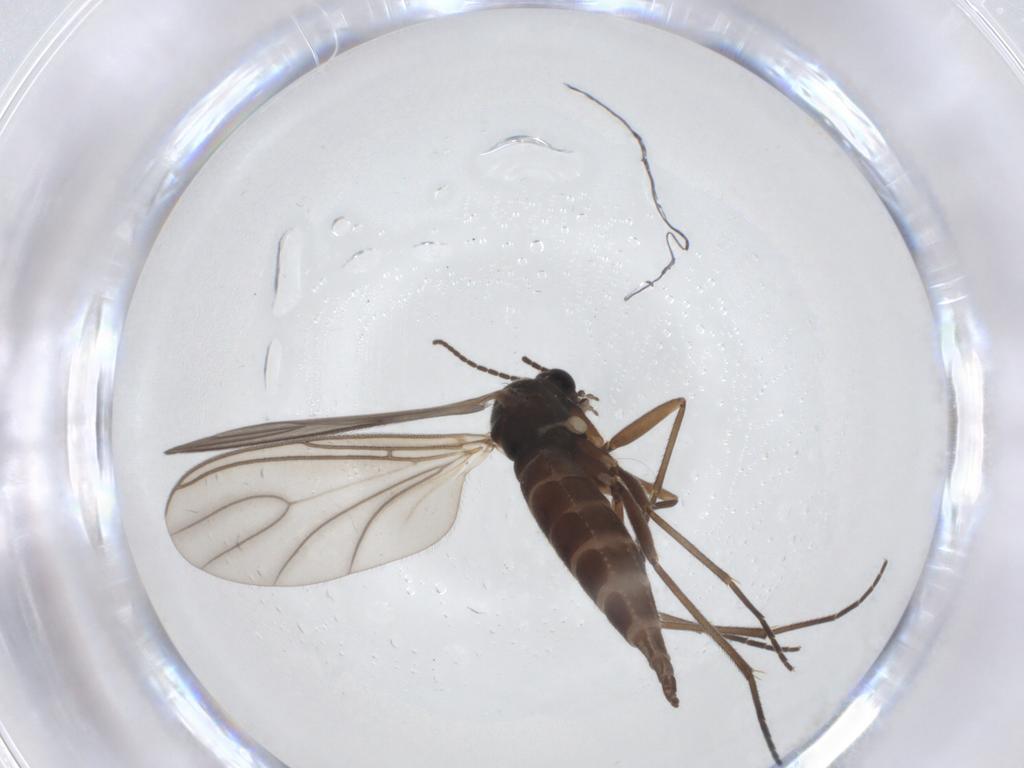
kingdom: Animalia
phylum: Arthropoda
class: Insecta
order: Diptera
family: Sciaridae
